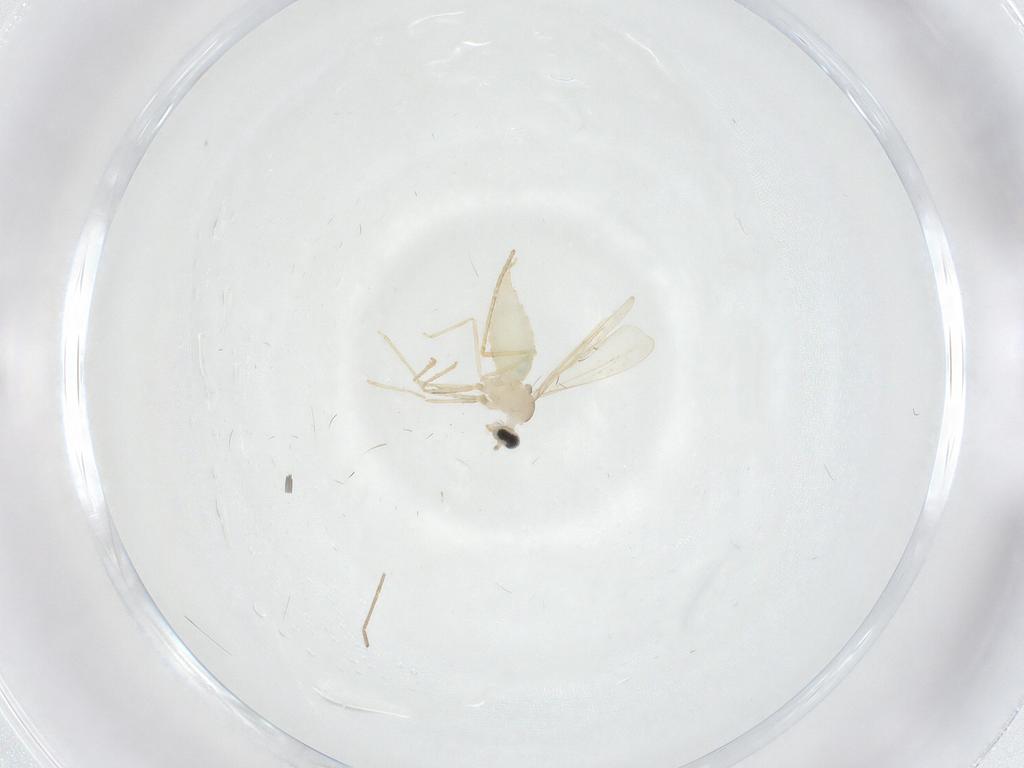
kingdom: Animalia
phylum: Arthropoda
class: Insecta
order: Diptera
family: Cecidomyiidae
